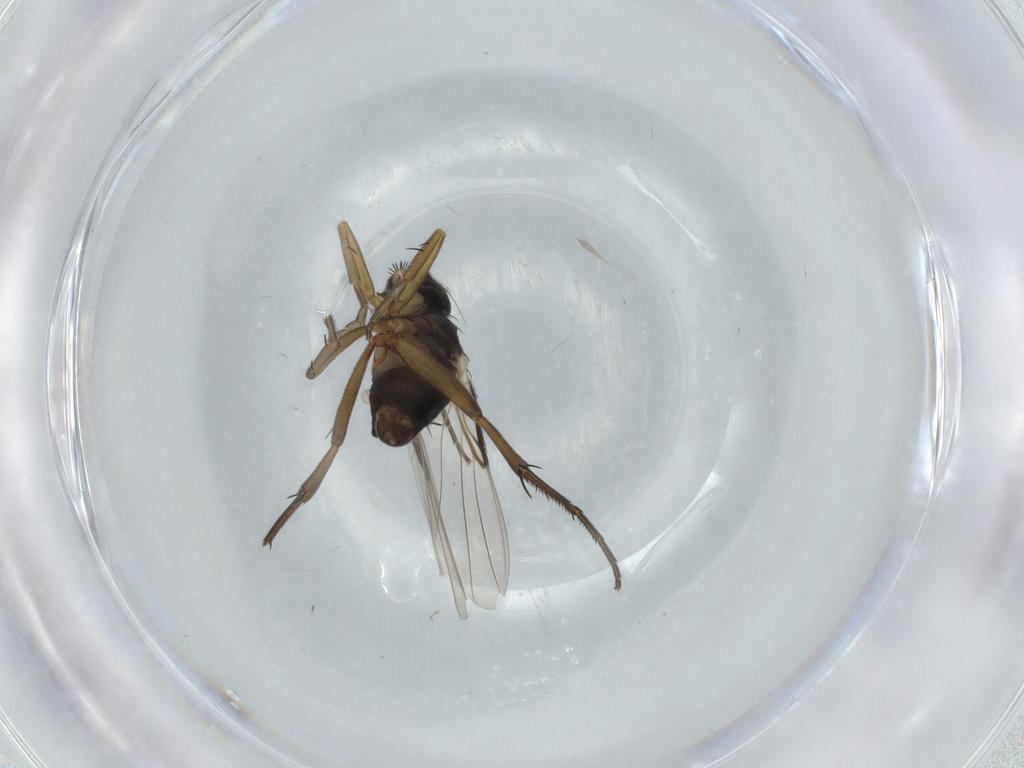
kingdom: Animalia
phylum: Arthropoda
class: Insecta
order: Diptera
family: Phoridae
